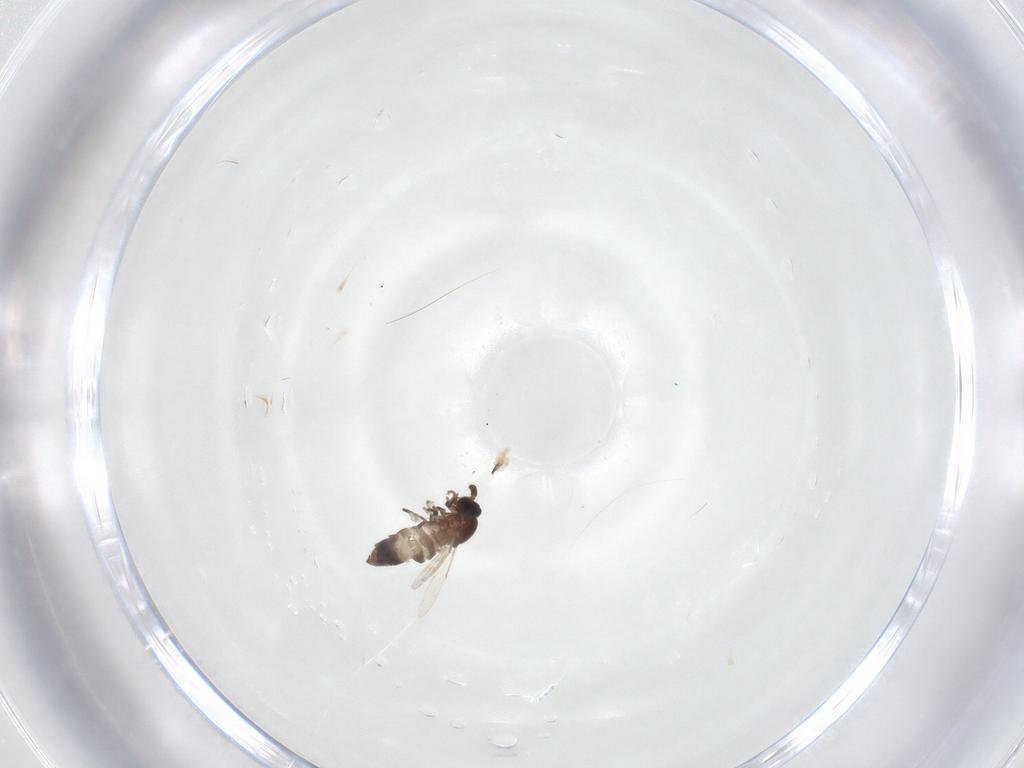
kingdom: Animalia
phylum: Arthropoda
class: Insecta
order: Diptera
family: Scatopsidae
